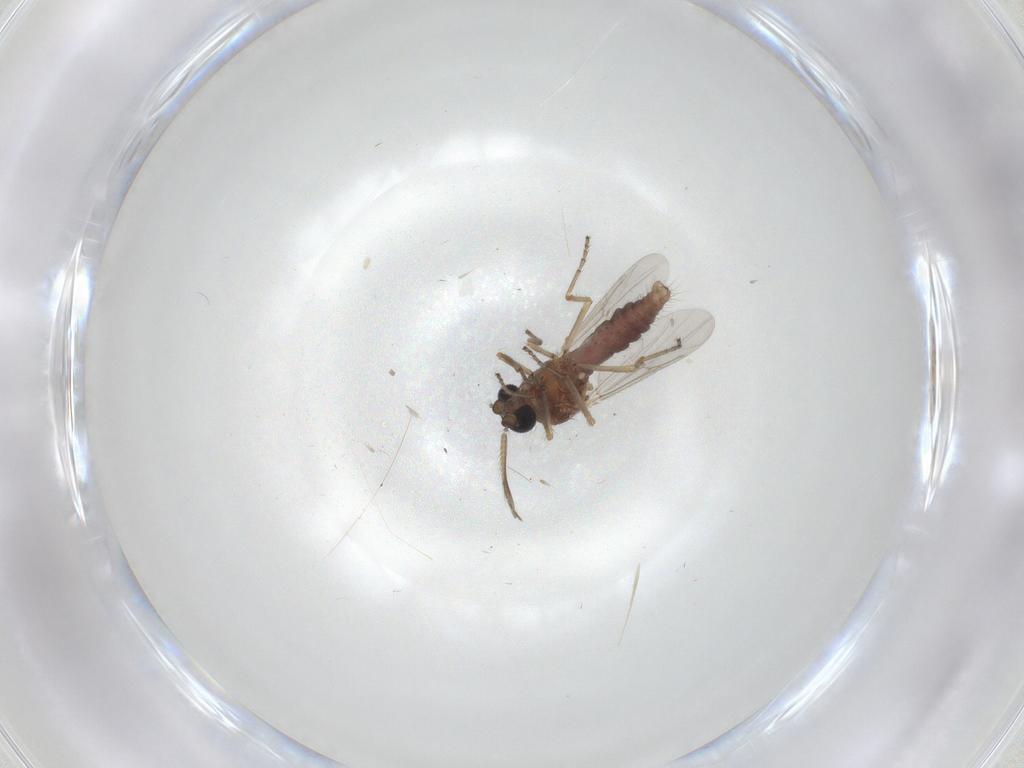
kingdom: Animalia
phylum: Arthropoda
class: Insecta
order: Diptera
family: Ceratopogonidae
